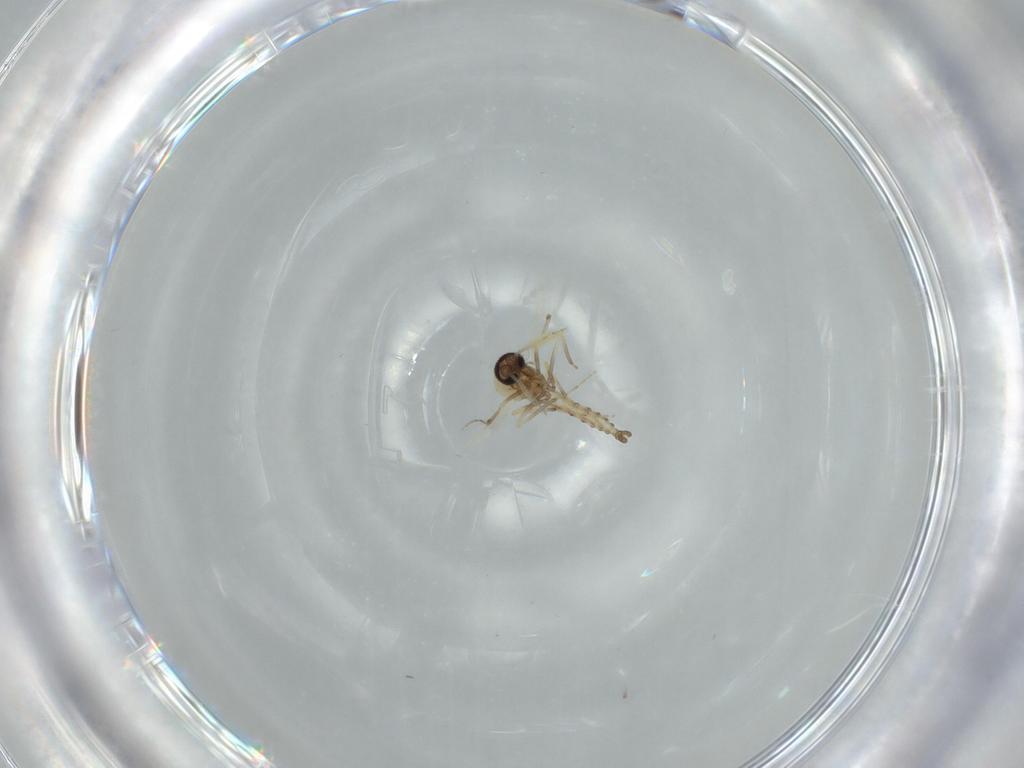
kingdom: Animalia
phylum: Arthropoda
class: Insecta
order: Diptera
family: Ceratopogonidae
